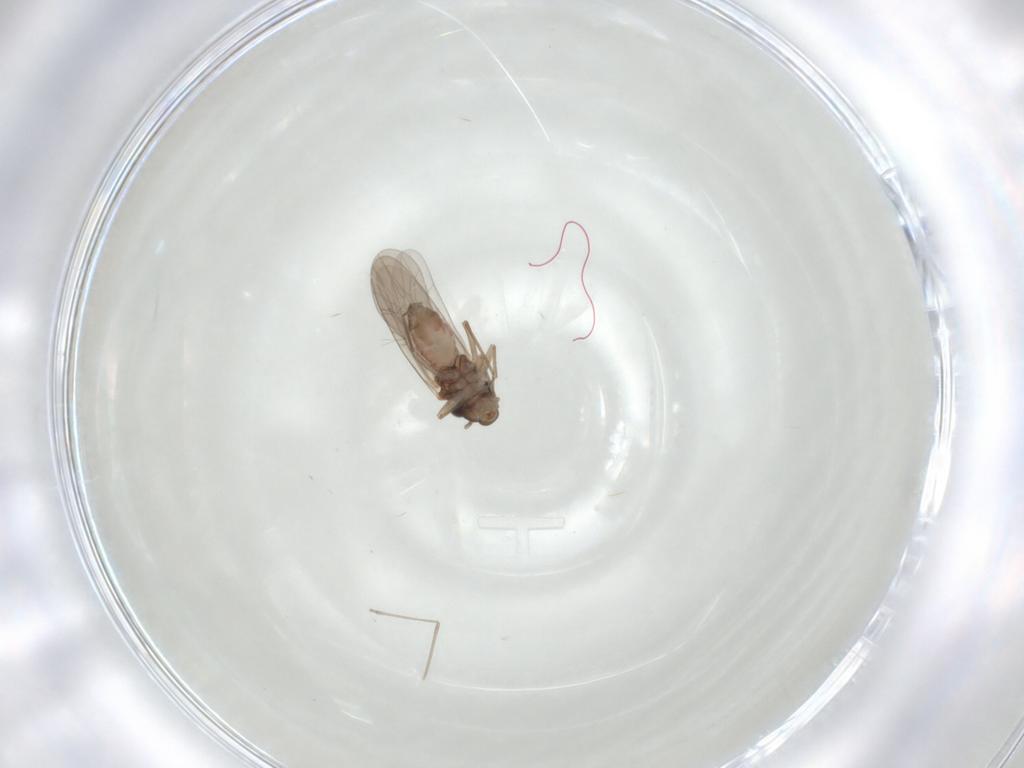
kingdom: Animalia
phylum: Arthropoda
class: Insecta
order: Psocodea
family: Lepidopsocidae
